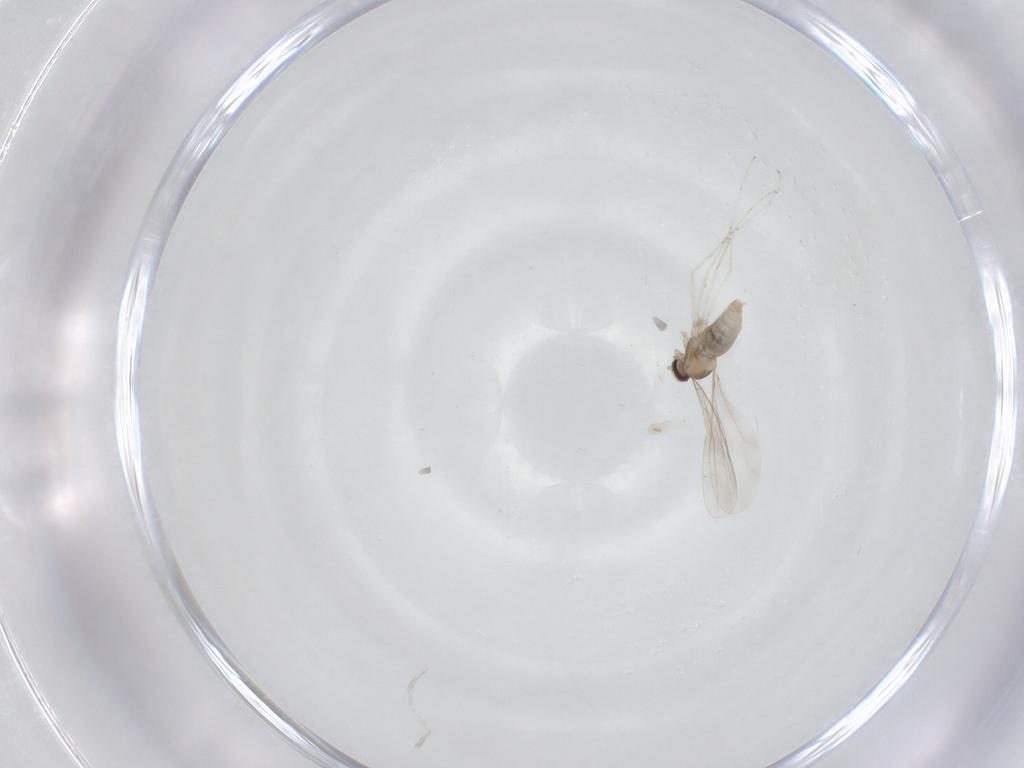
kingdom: Animalia
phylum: Arthropoda
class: Insecta
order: Diptera
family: Cecidomyiidae
